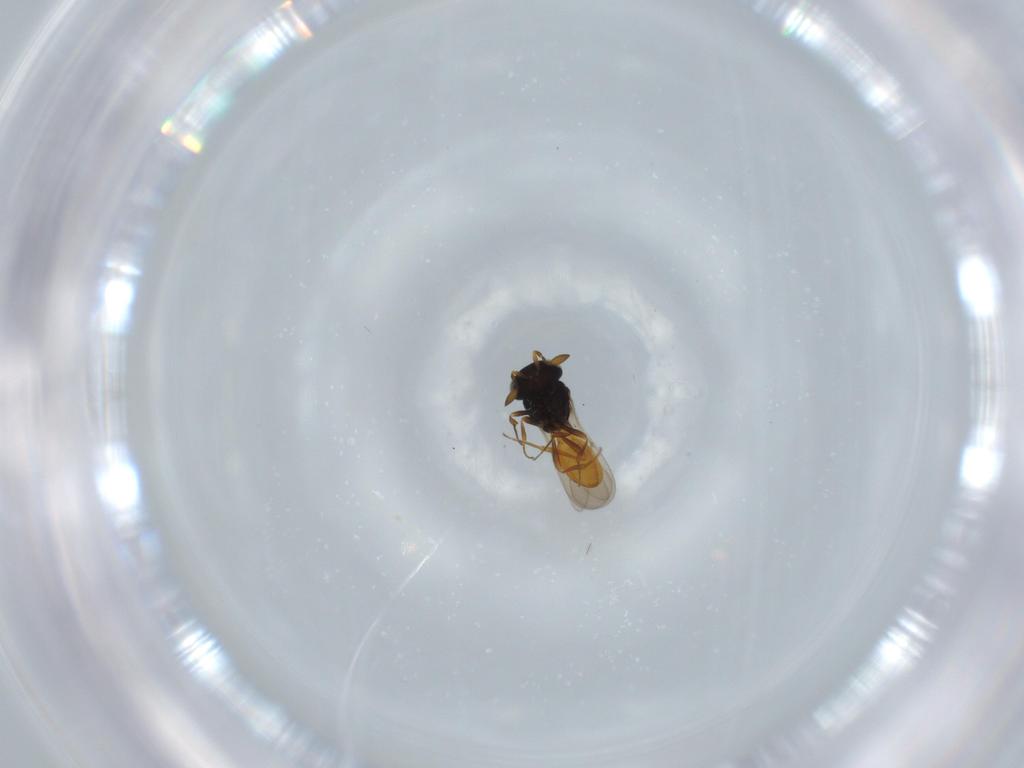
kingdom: Animalia
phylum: Arthropoda
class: Insecta
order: Hymenoptera
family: Scelionidae
